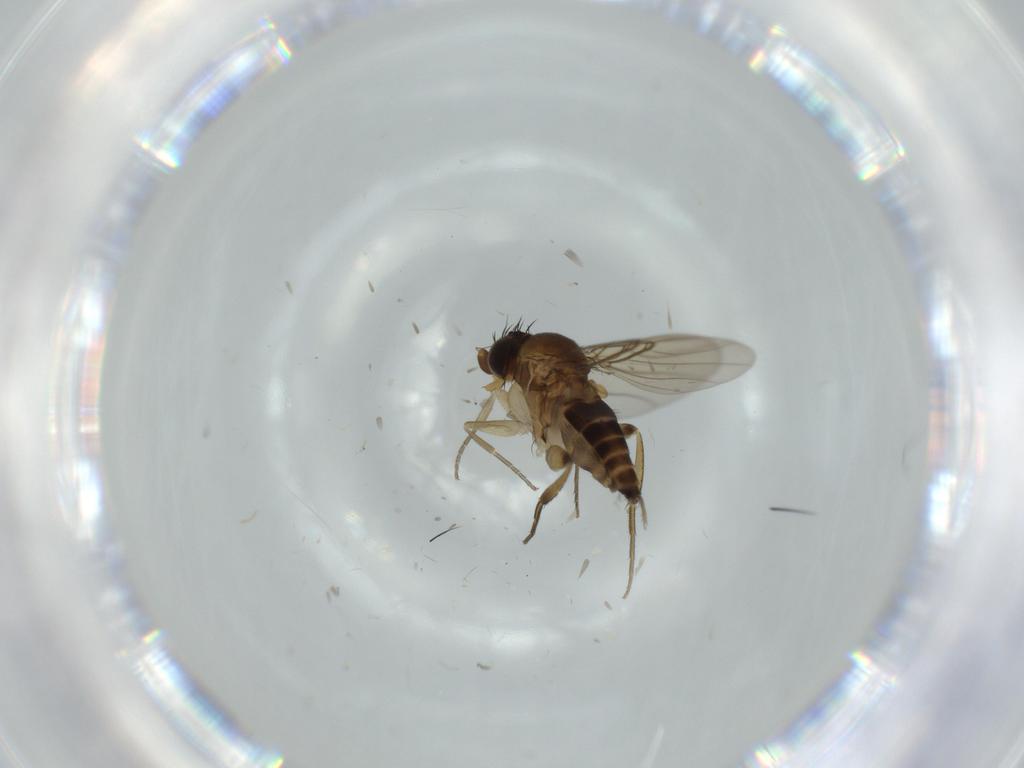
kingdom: Animalia
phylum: Arthropoda
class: Insecta
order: Diptera
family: Phoridae
